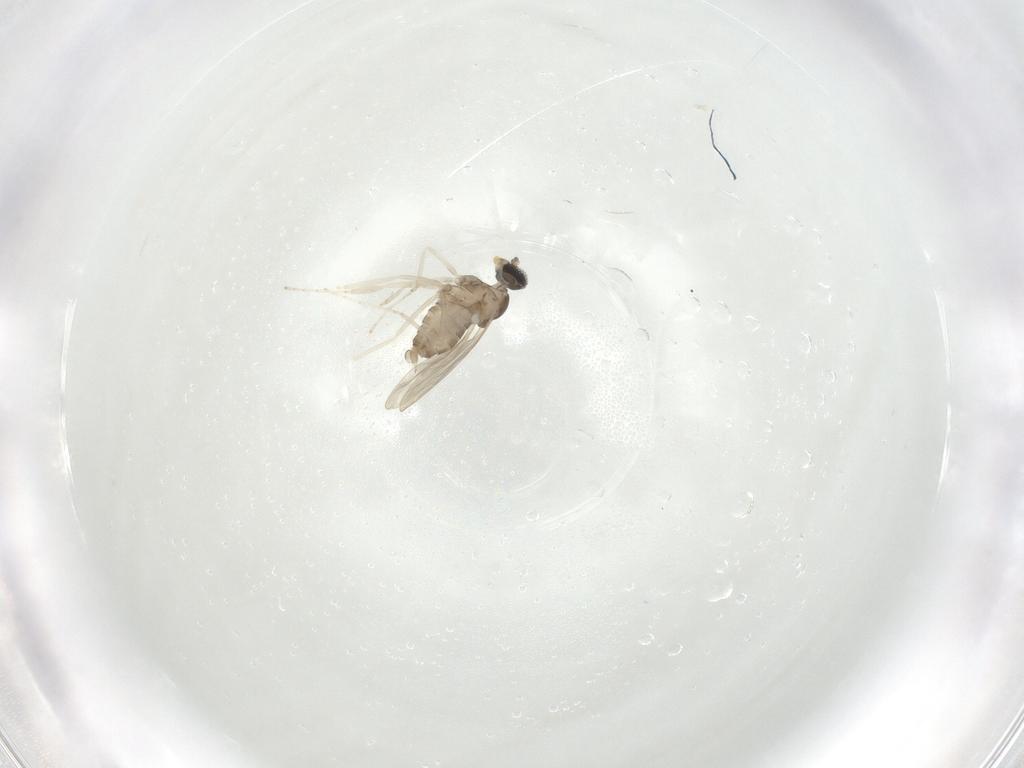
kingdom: Animalia
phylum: Arthropoda
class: Insecta
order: Diptera
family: Cecidomyiidae
